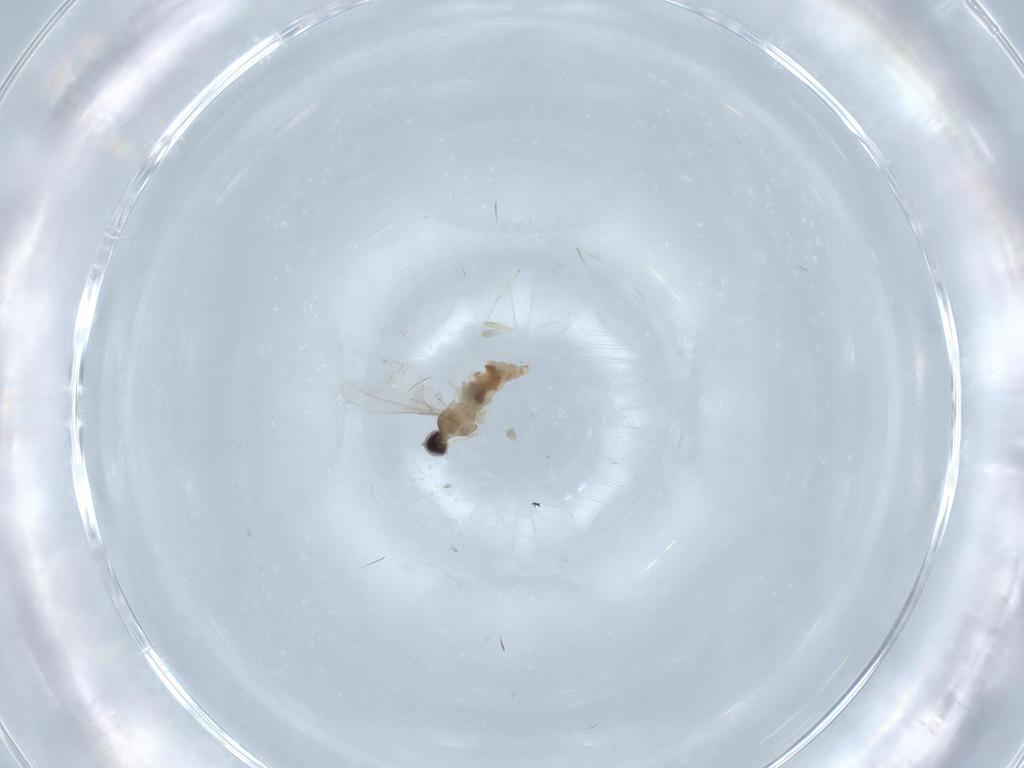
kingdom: Animalia
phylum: Arthropoda
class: Insecta
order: Diptera
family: Cecidomyiidae
